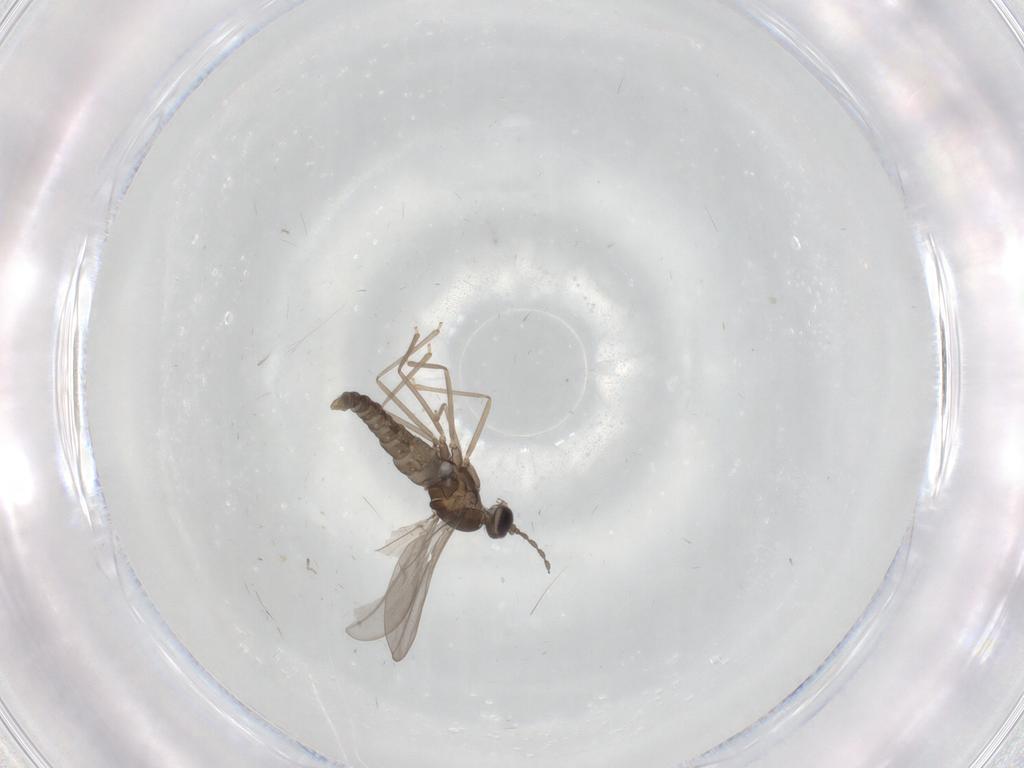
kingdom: Animalia
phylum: Arthropoda
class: Insecta
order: Diptera
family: Cecidomyiidae
